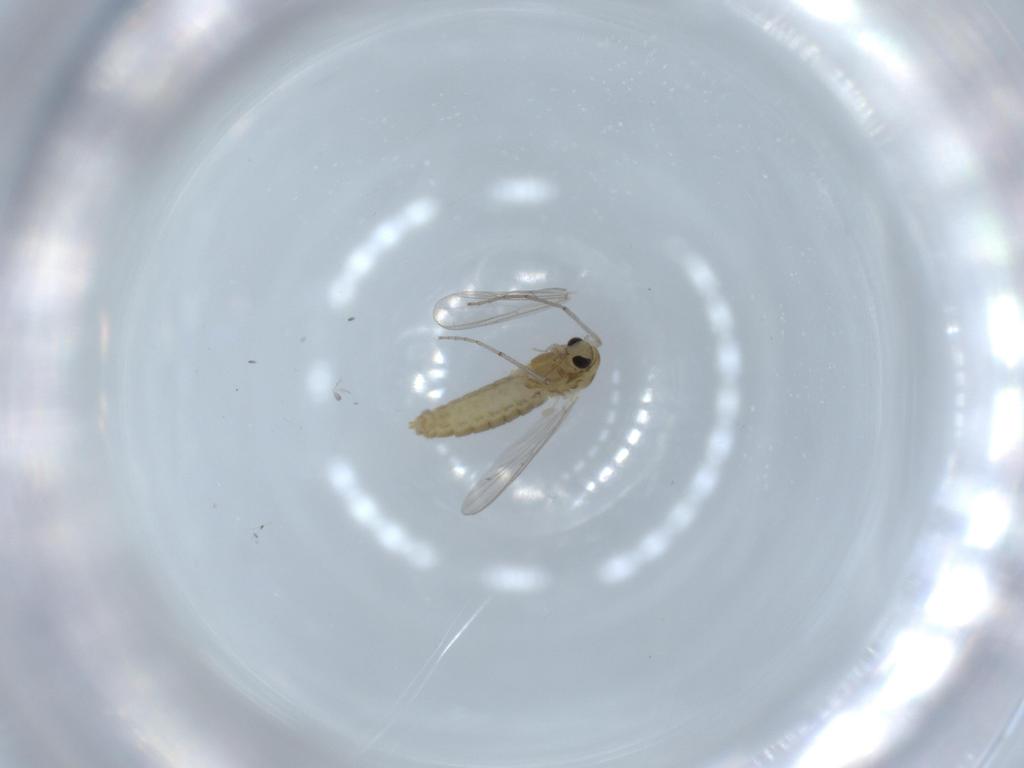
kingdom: Animalia
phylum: Arthropoda
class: Insecta
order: Diptera
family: Chironomidae
